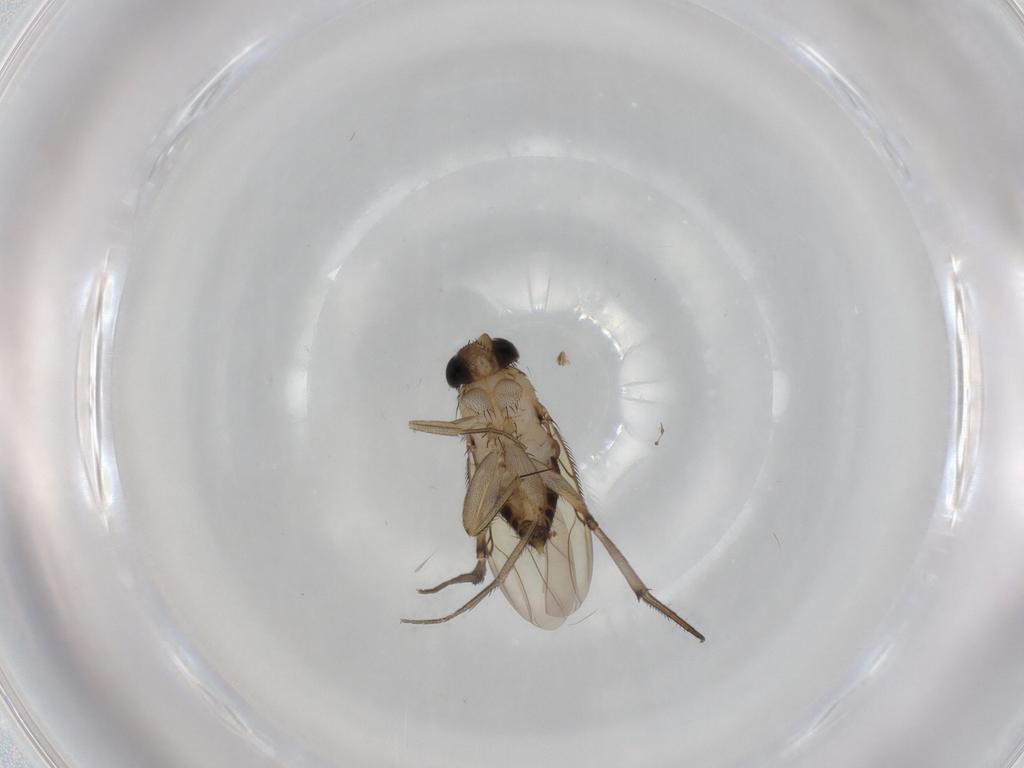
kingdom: Animalia
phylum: Arthropoda
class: Insecta
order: Diptera
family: Phoridae
